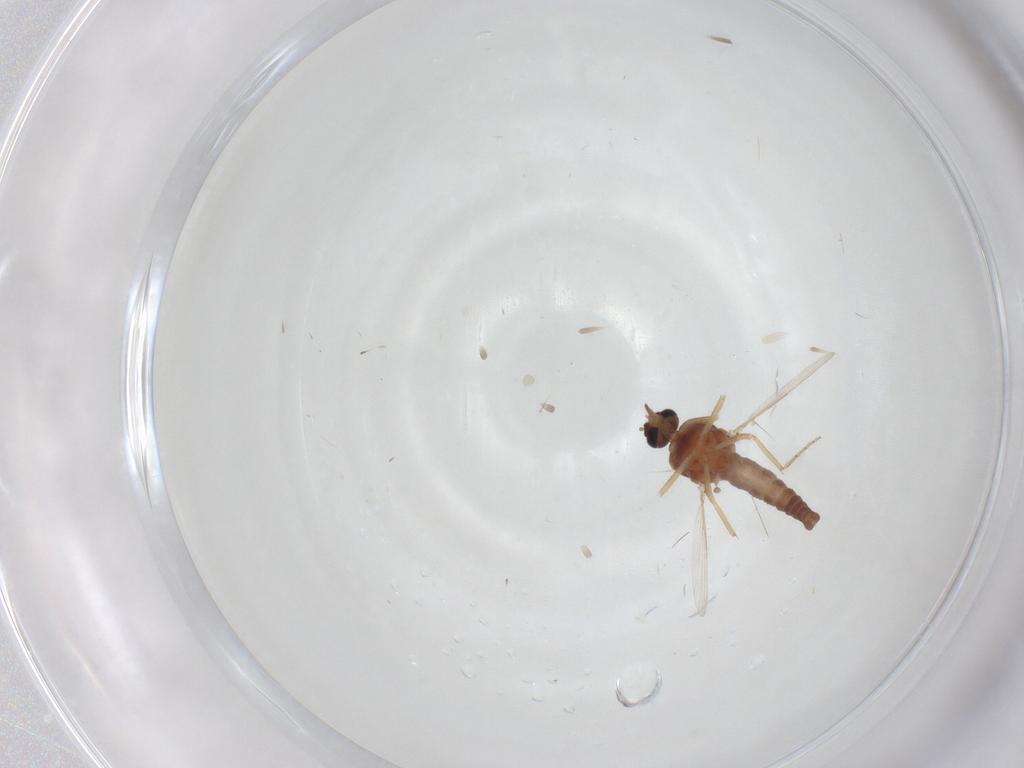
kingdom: Animalia
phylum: Arthropoda
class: Insecta
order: Diptera
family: Ceratopogonidae
